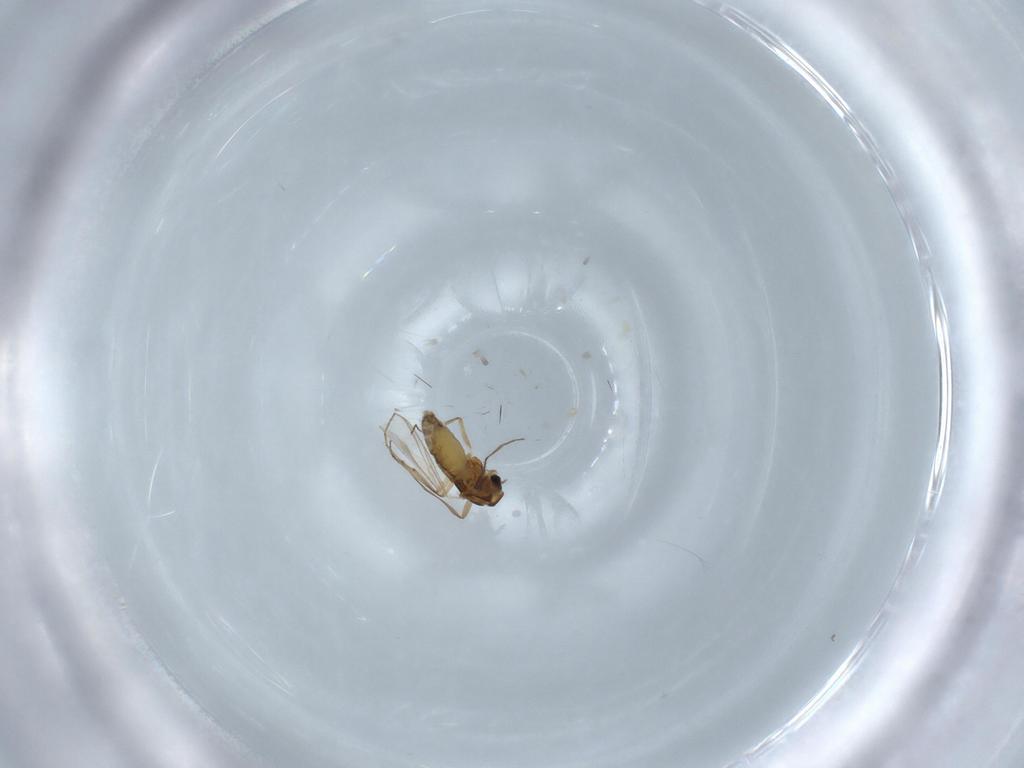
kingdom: Animalia
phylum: Arthropoda
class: Insecta
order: Diptera
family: Chironomidae
